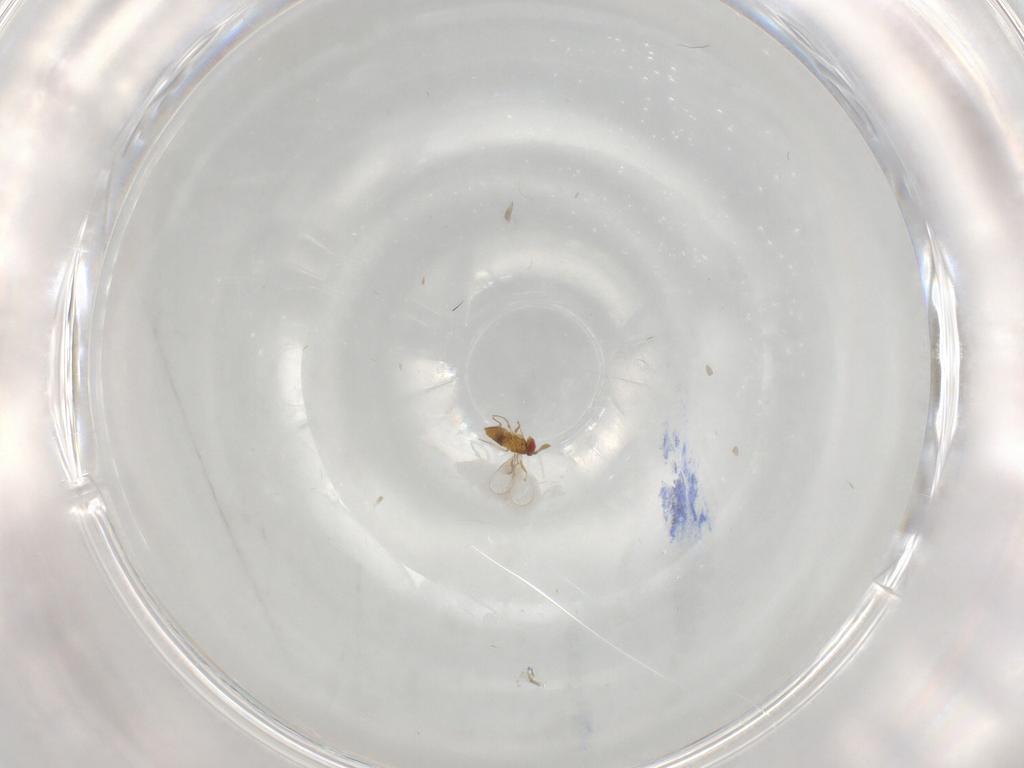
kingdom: Animalia
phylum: Arthropoda
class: Insecta
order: Hymenoptera
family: Trichogrammatidae
